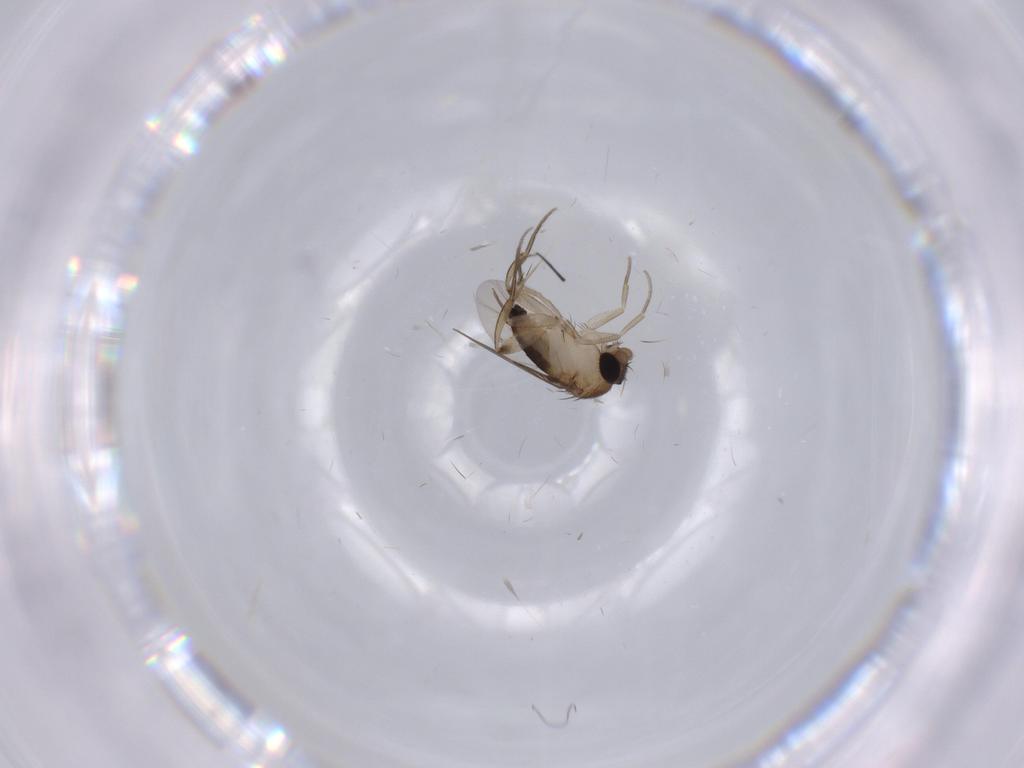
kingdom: Animalia
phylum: Arthropoda
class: Insecta
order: Diptera
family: Phoridae
